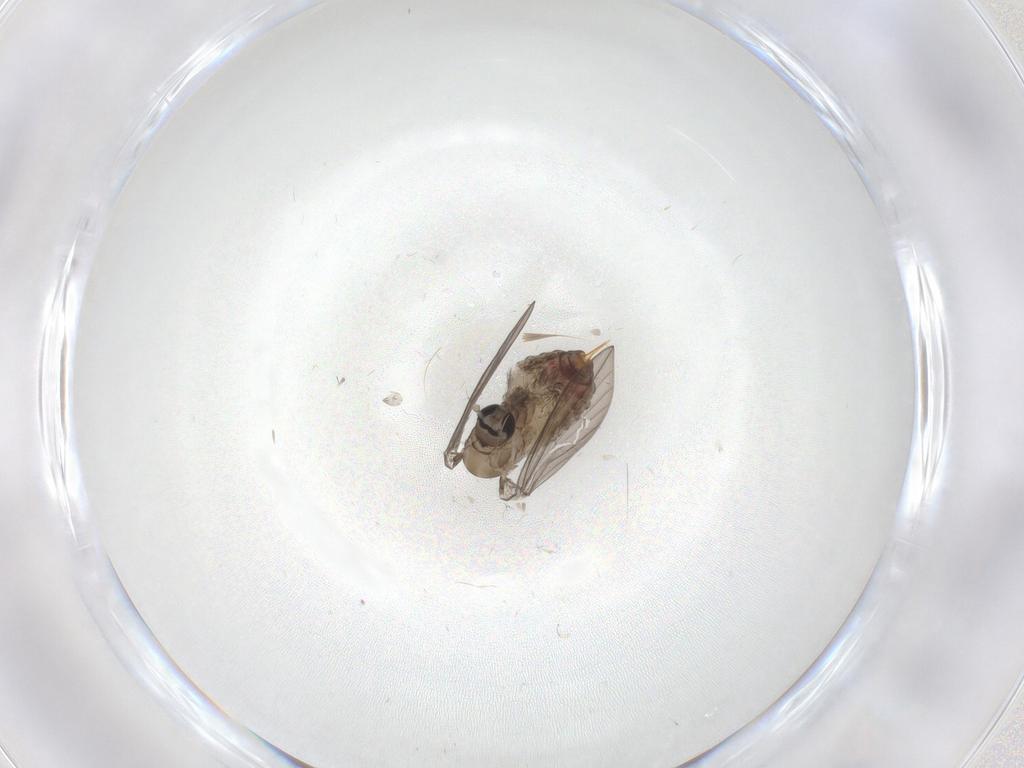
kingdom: Animalia
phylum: Arthropoda
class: Insecta
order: Diptera
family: Psychodidae
